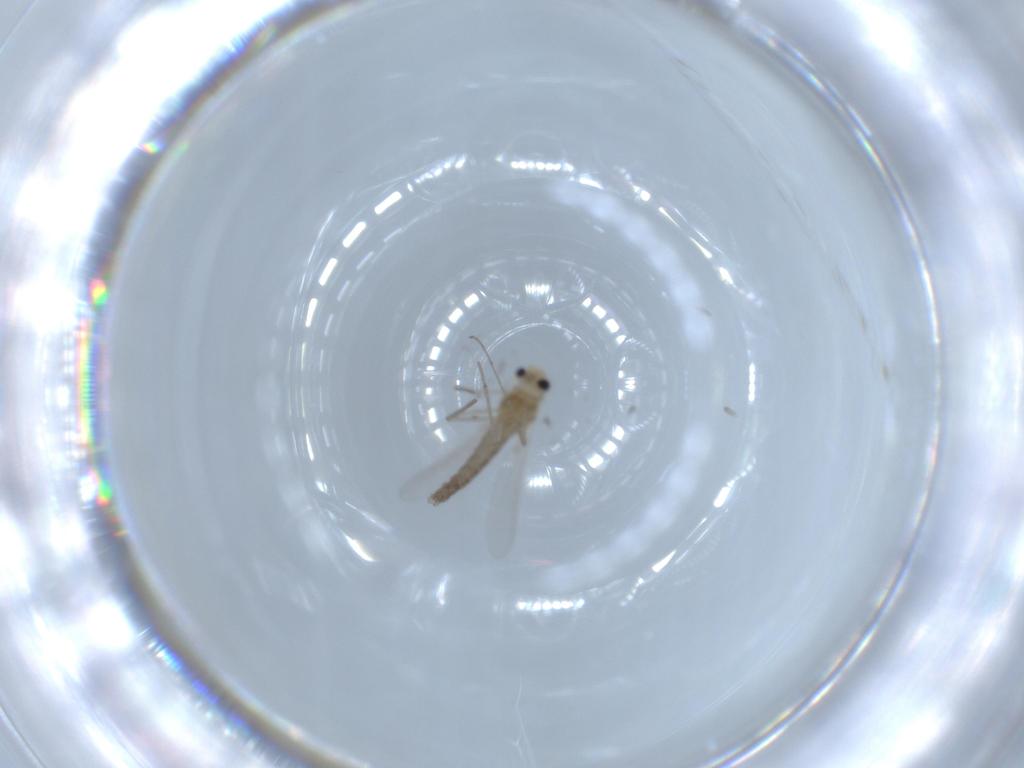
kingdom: Animalia
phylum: Arthropoda
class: Insecta
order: Diptera
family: Chironomidae
